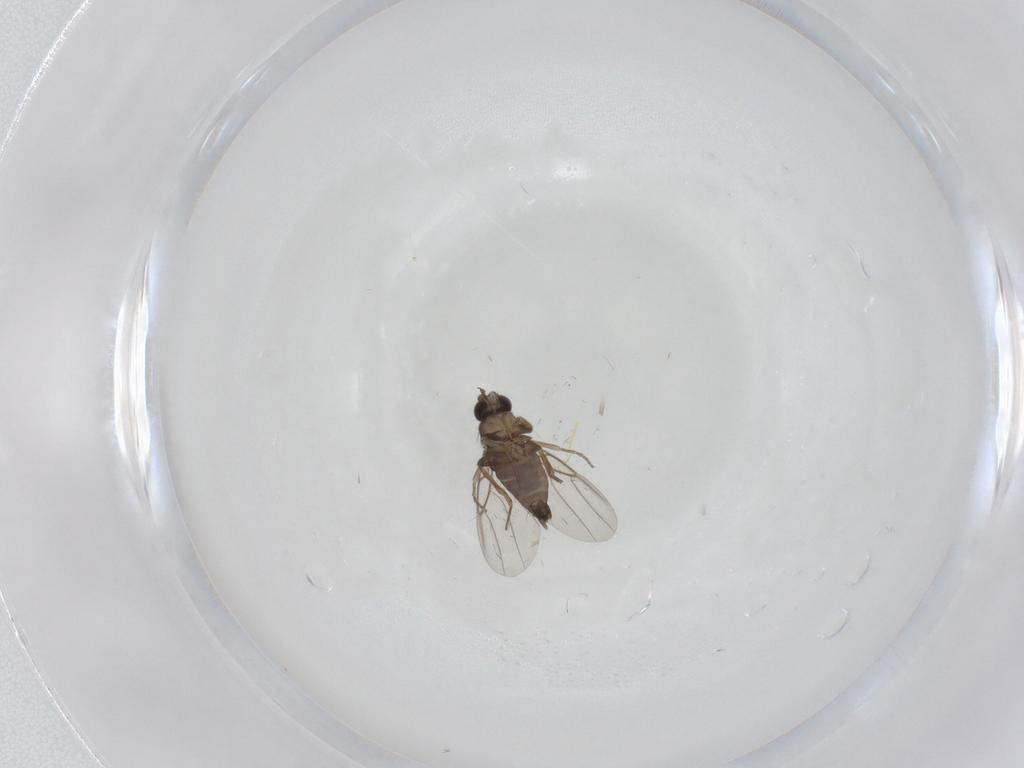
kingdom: Animalia
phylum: Arthropoda
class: Insecta
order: Diptera
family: Phoridae
